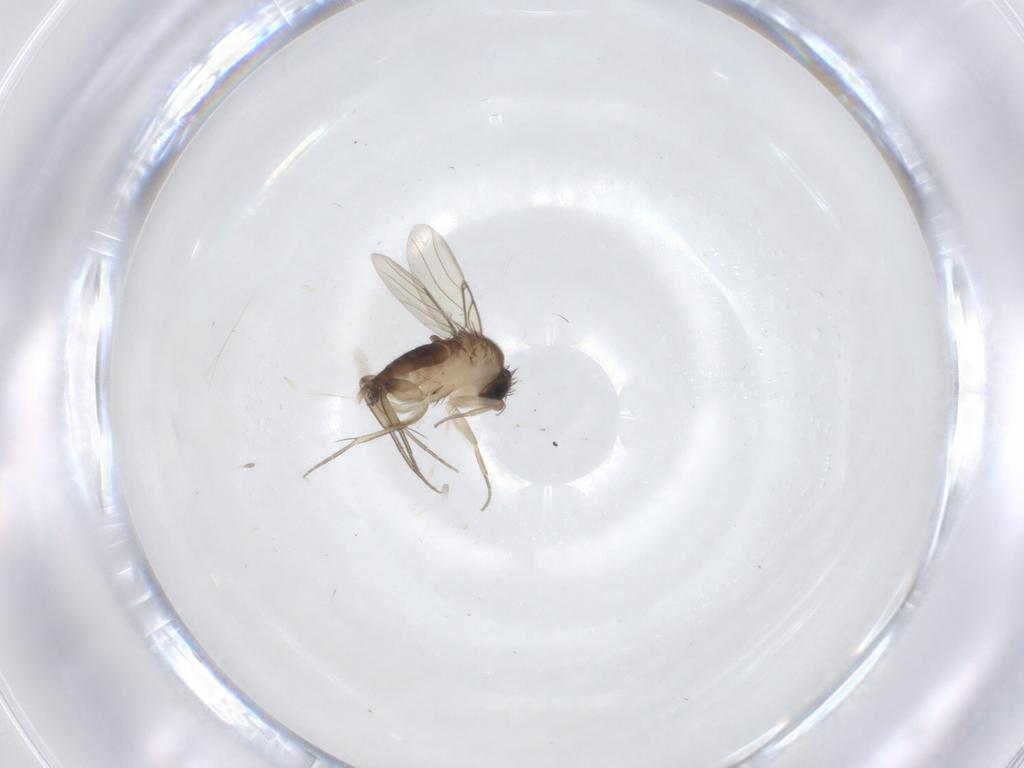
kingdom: Animalia
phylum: Arthropoda
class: Insecta
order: Diptera
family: Phoridae
